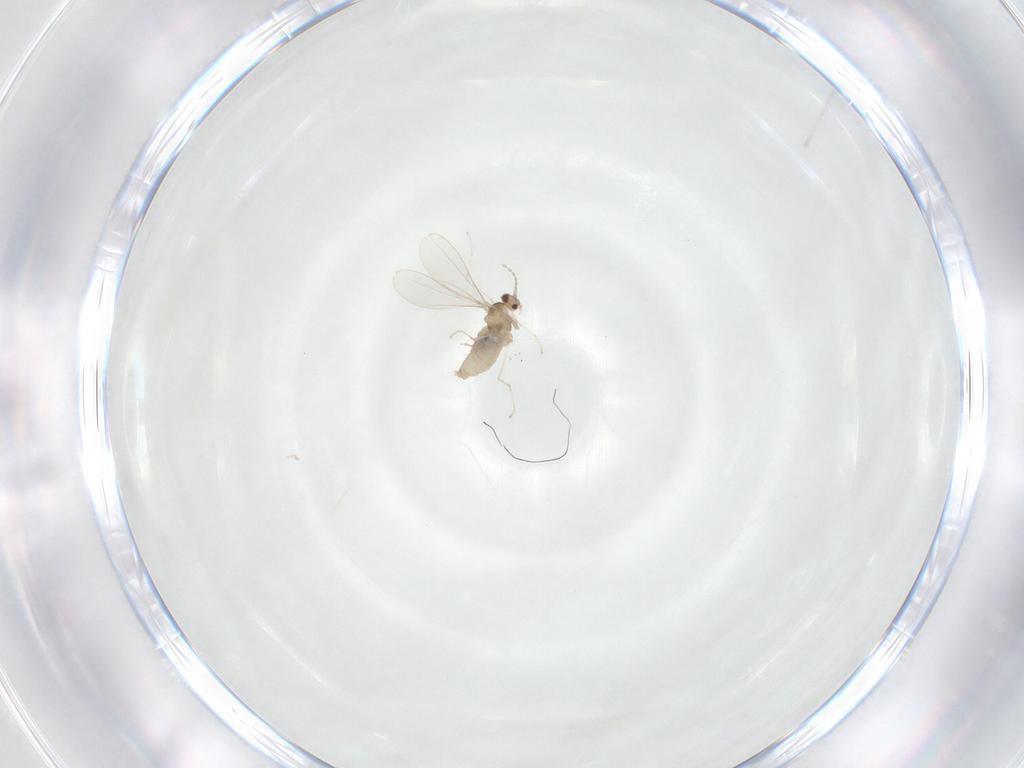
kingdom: Animalia
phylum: Arthropoda
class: Insecta
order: Diptera
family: Cecidomyiidae
